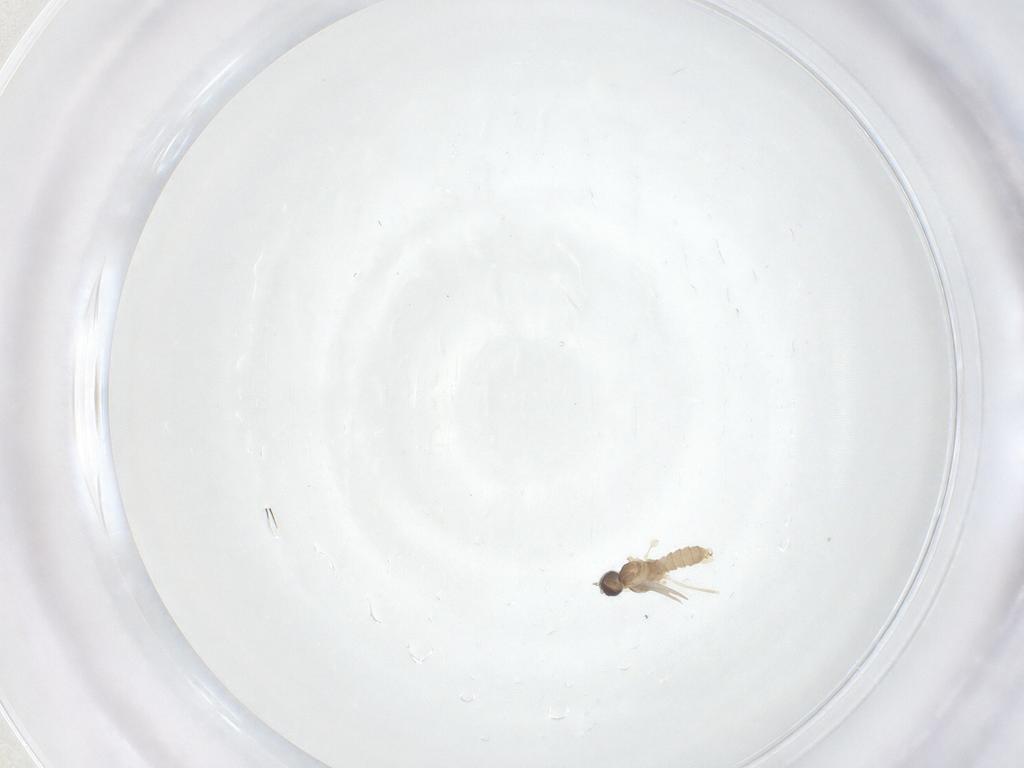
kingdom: Animalia
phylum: Arthropoda
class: Insecta
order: Diptera
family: Cecidomyiidae
